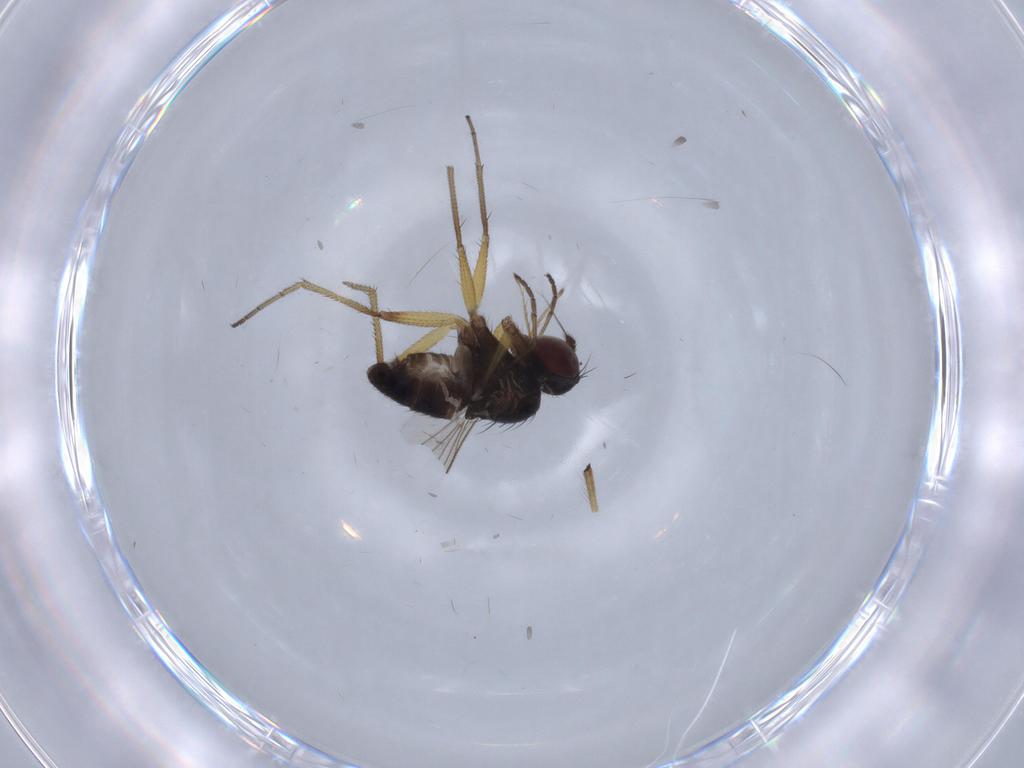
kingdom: Animalia
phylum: Arthropoda
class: Insecta
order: Diptera
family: Dolichopodidae
